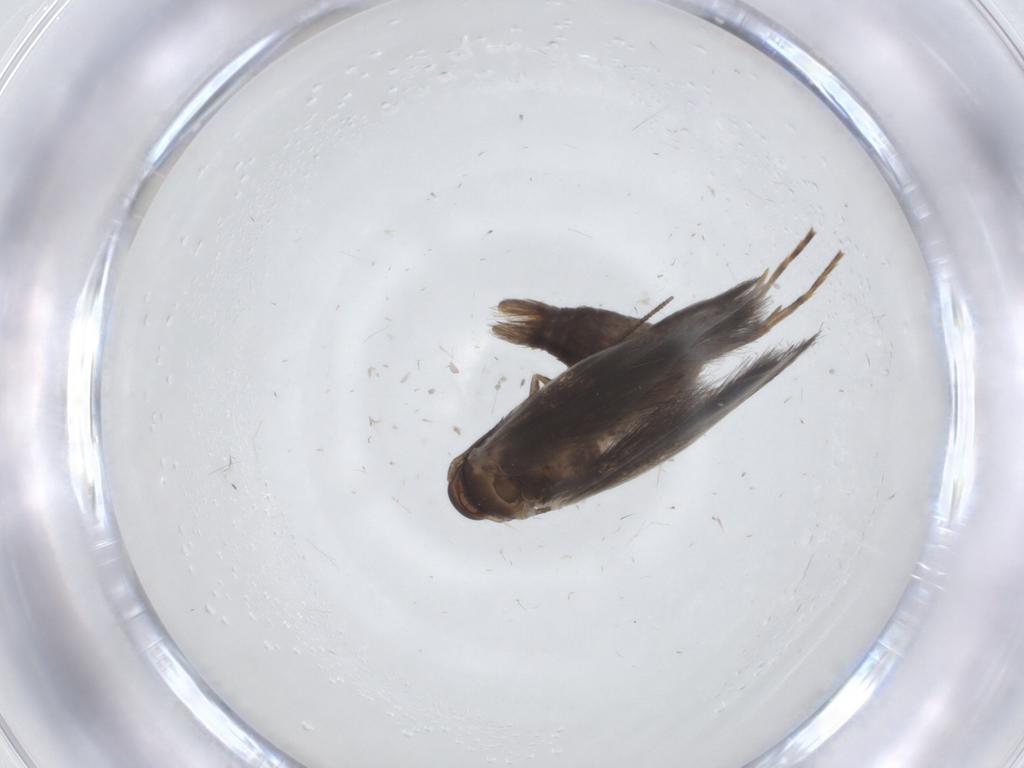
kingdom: Animalia
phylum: Arthropoda
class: Insecta
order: Lepidoptera
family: Elachistidae
